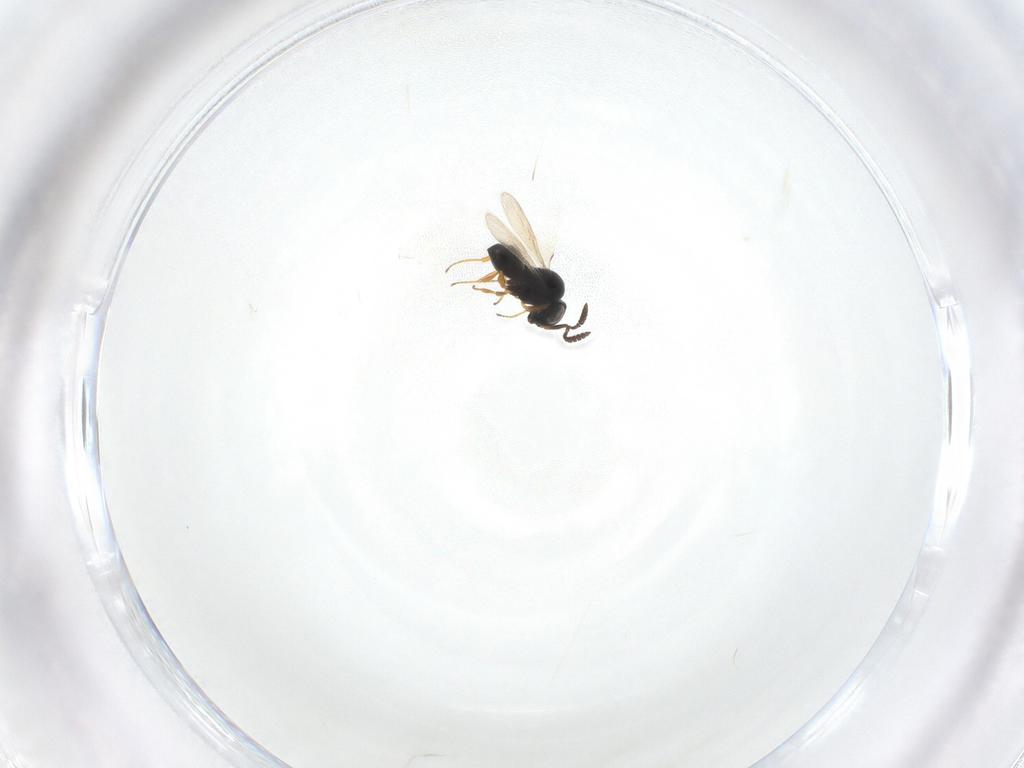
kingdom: Animalia
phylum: Arthropoda
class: Insecta
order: Hymenoptera
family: Scelionidae
